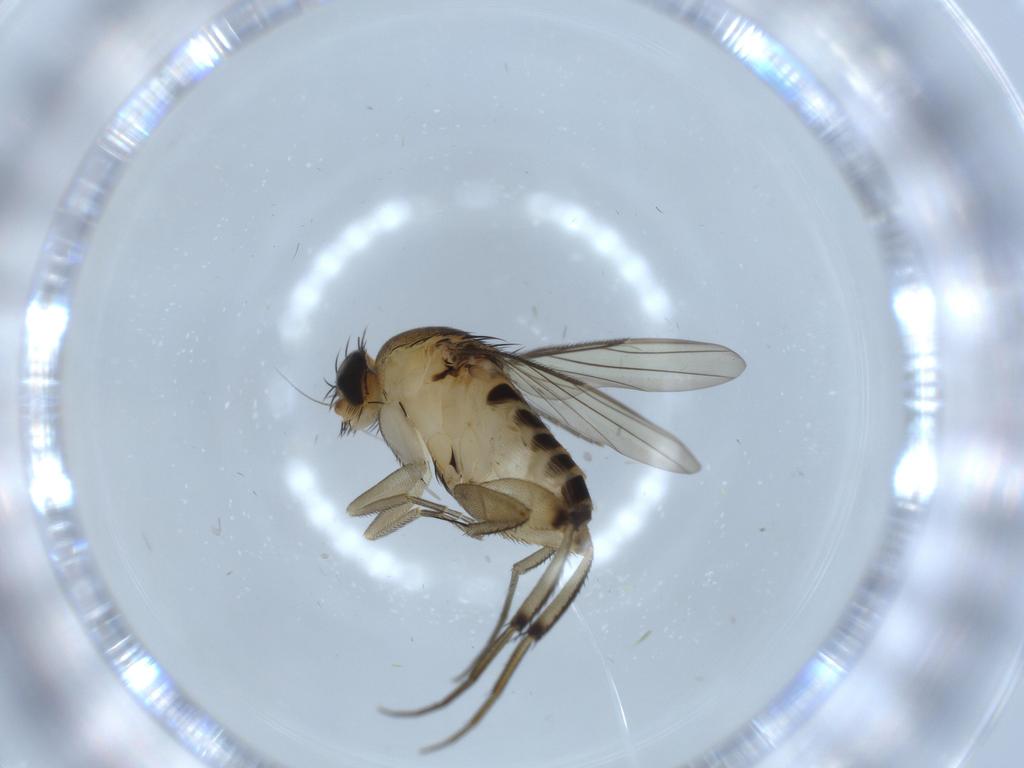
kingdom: Animalia
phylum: Arthropoda
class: Insecta
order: Diptera
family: Phoridae
